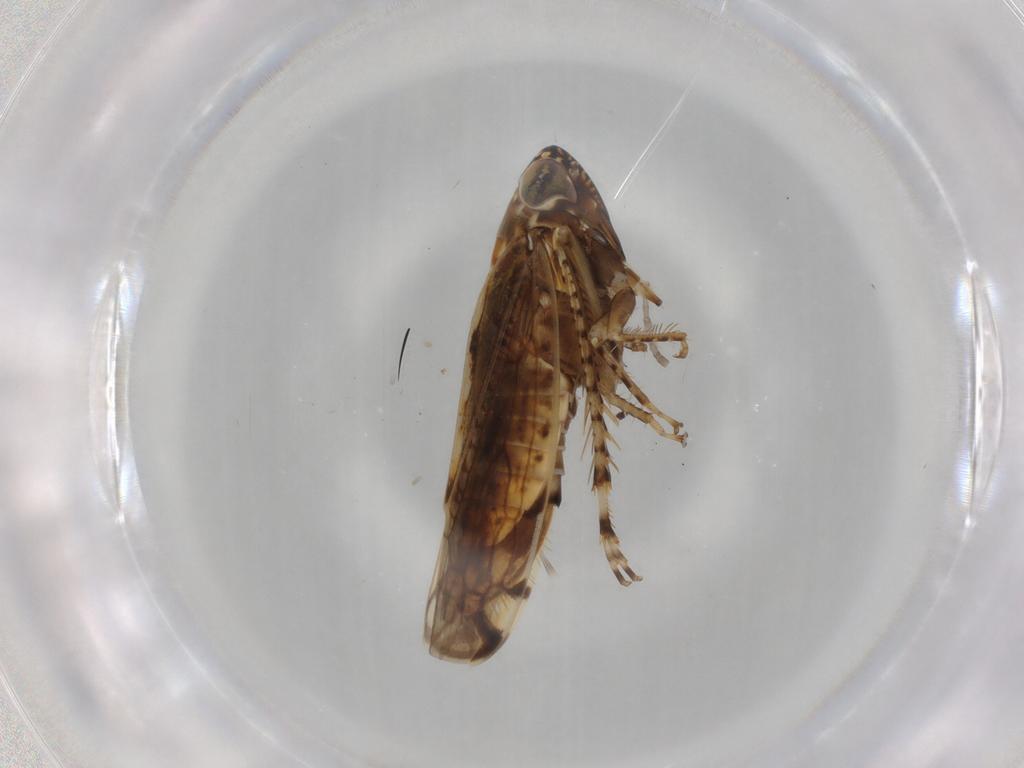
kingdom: Animalia
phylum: Arthropoda
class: Insecta
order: Hemiptera
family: Cicadellidae
